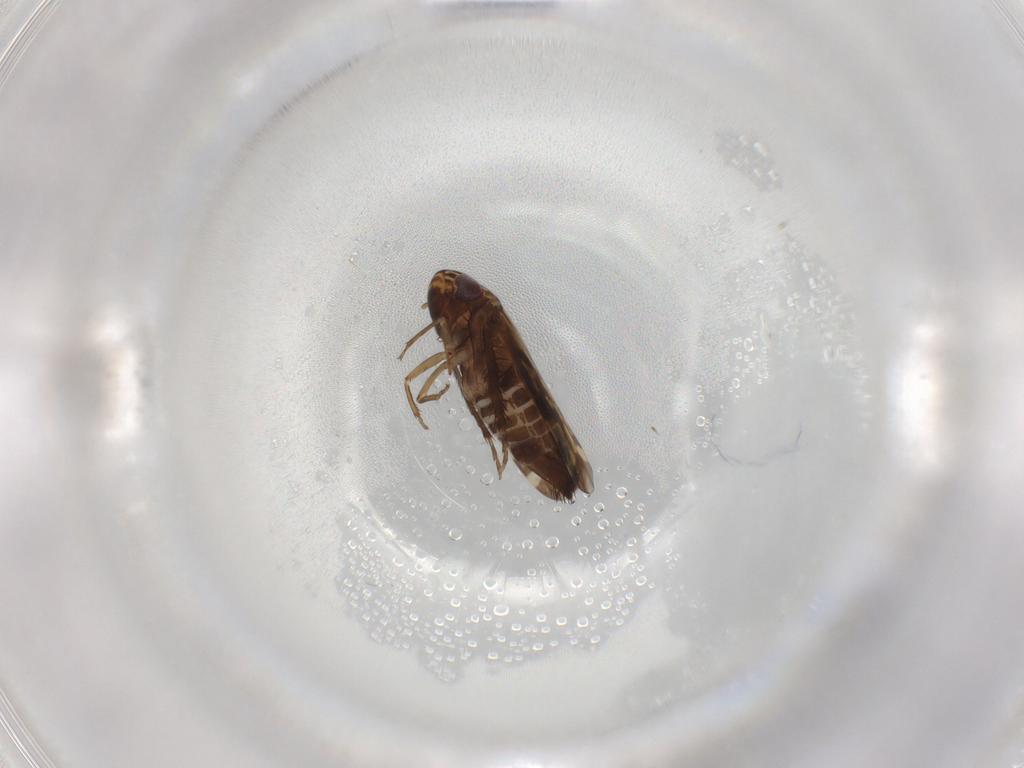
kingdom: Animalia
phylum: Arthropoda
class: Insecta
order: Hemiptera
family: Cicadellidae
